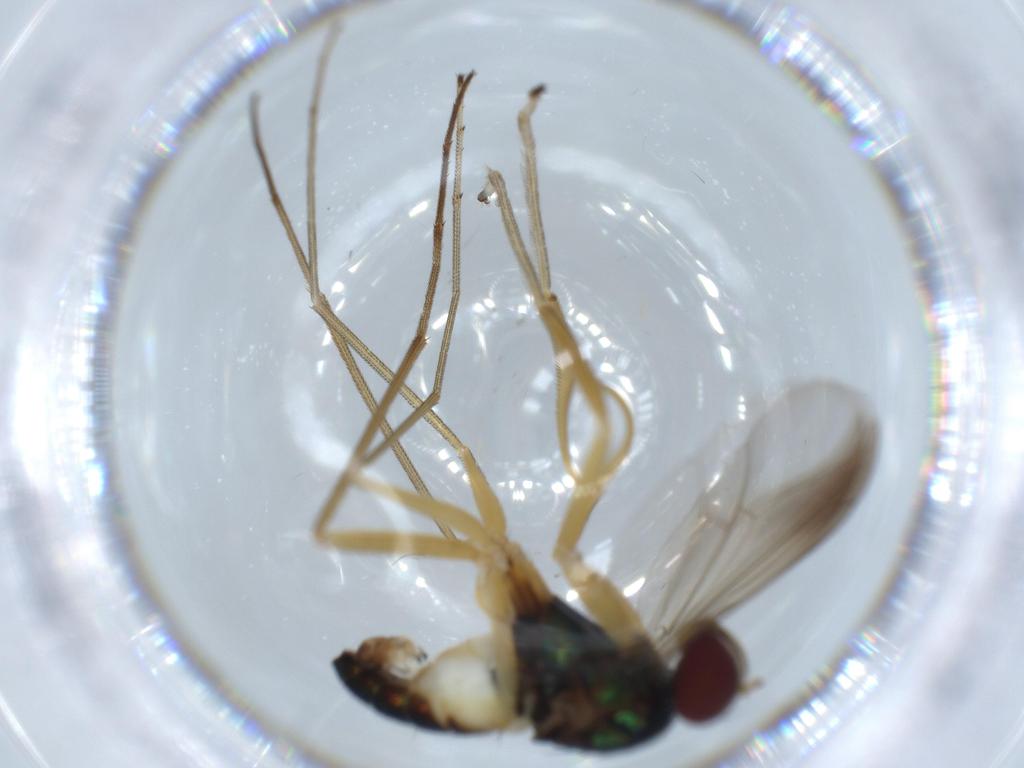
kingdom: Animalia
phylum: Arthropoda
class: Insecta
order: Diptera
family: Dolichopodidae
